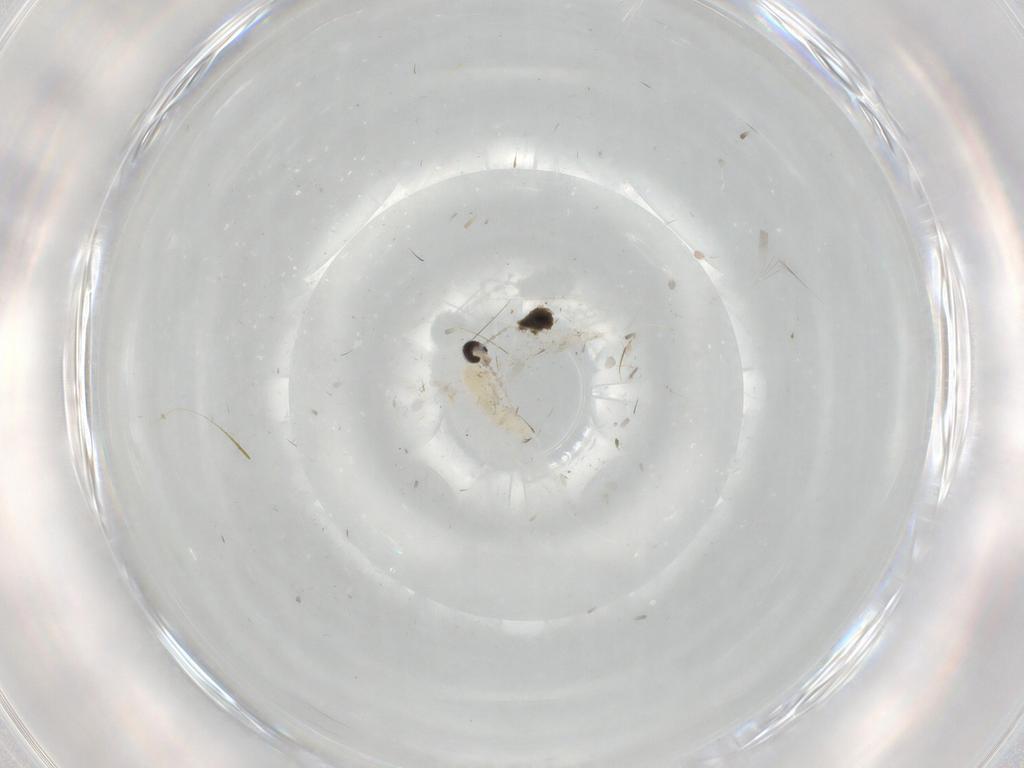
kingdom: Animalia
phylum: Arthropoda
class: Insecta
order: Diptera
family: Cecidomyiidae
